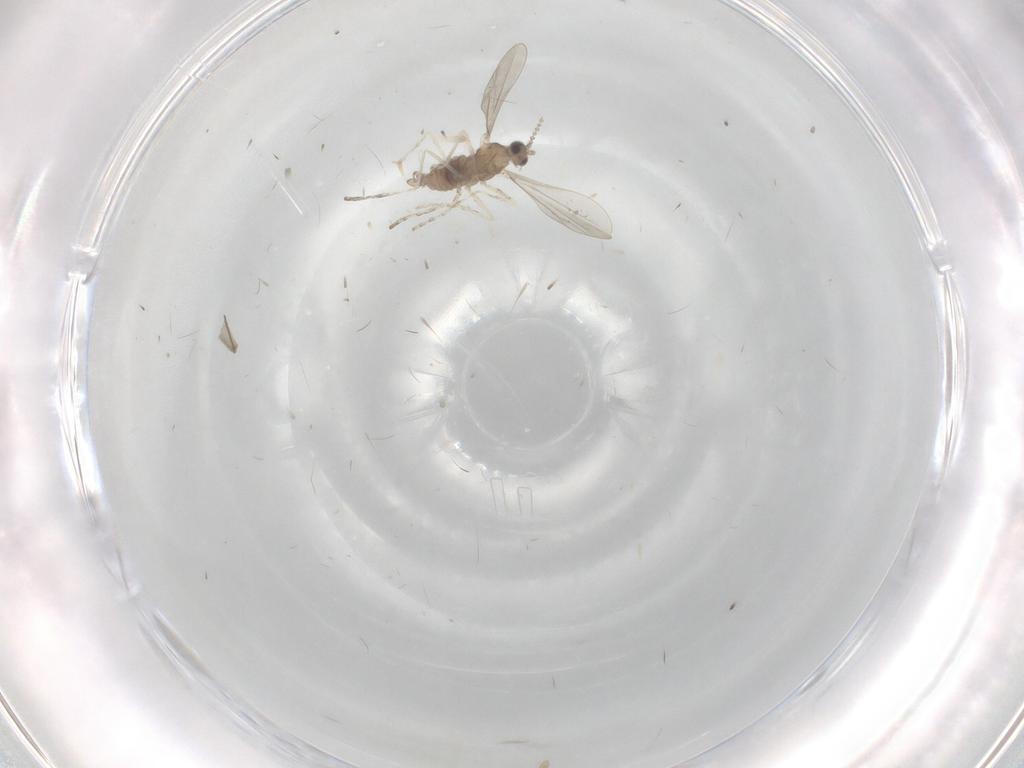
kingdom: Animalia
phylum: Arthropoda
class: Insecta
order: Diptera
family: Cecidomyiidae
